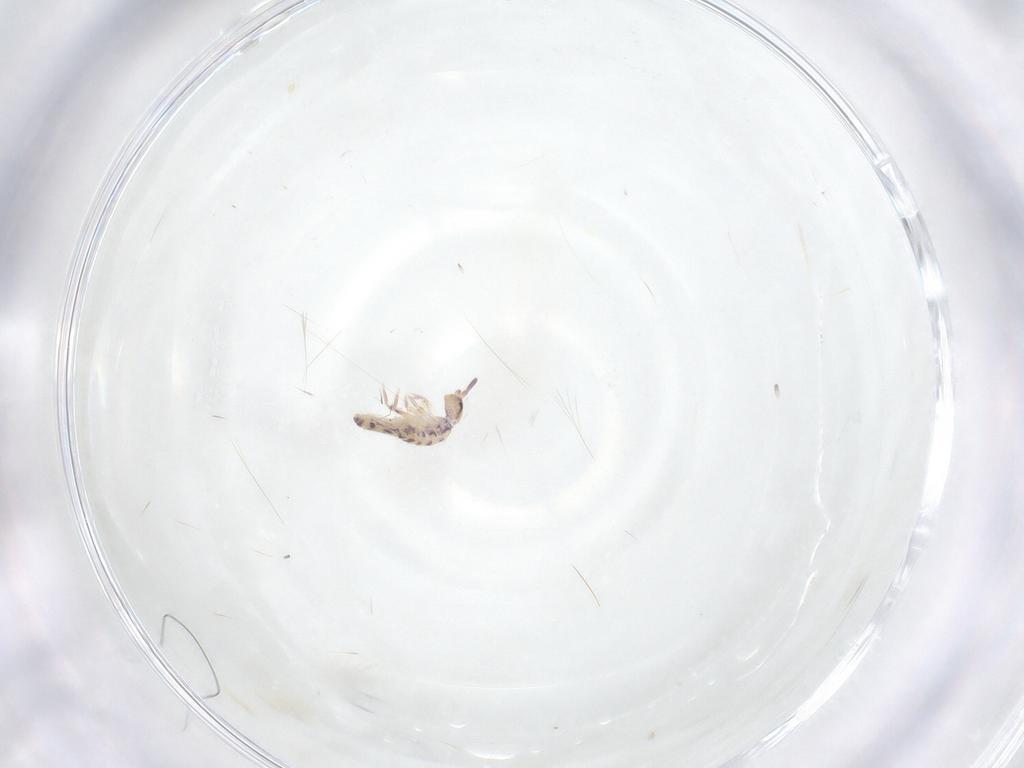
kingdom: Animalia
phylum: Arthropoda
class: Collembola
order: Entomobryomorpha
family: Entomobryidae
